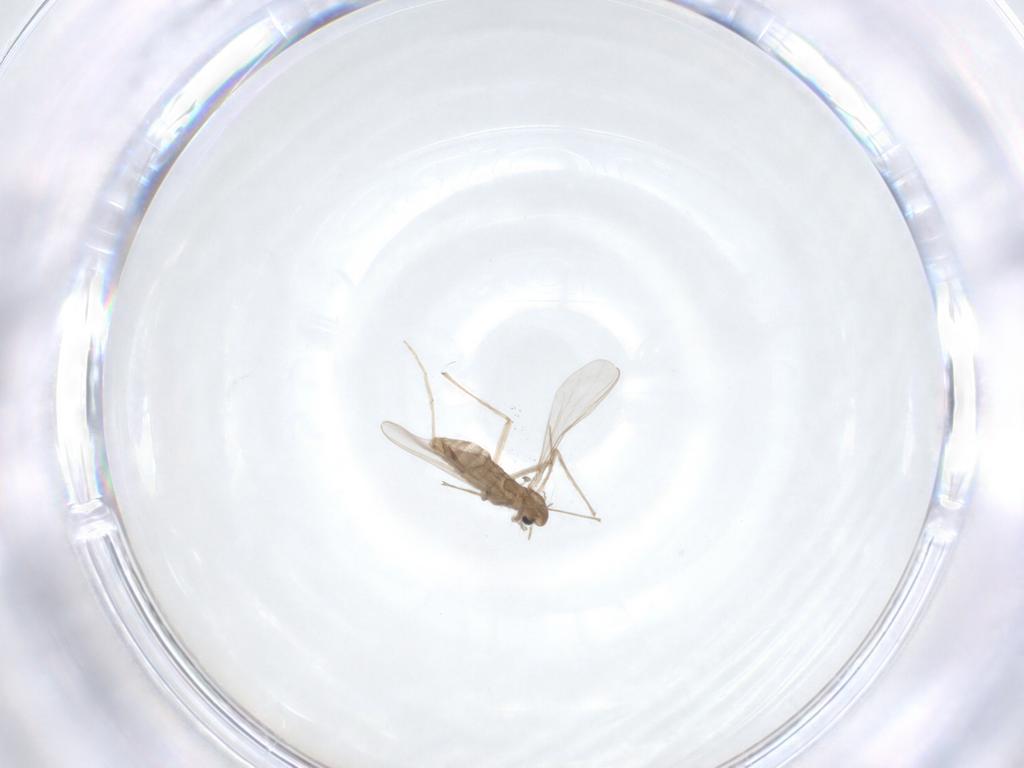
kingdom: Animalia
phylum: Arthropoda
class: Insecta
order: Diptera
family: Chironomidae
